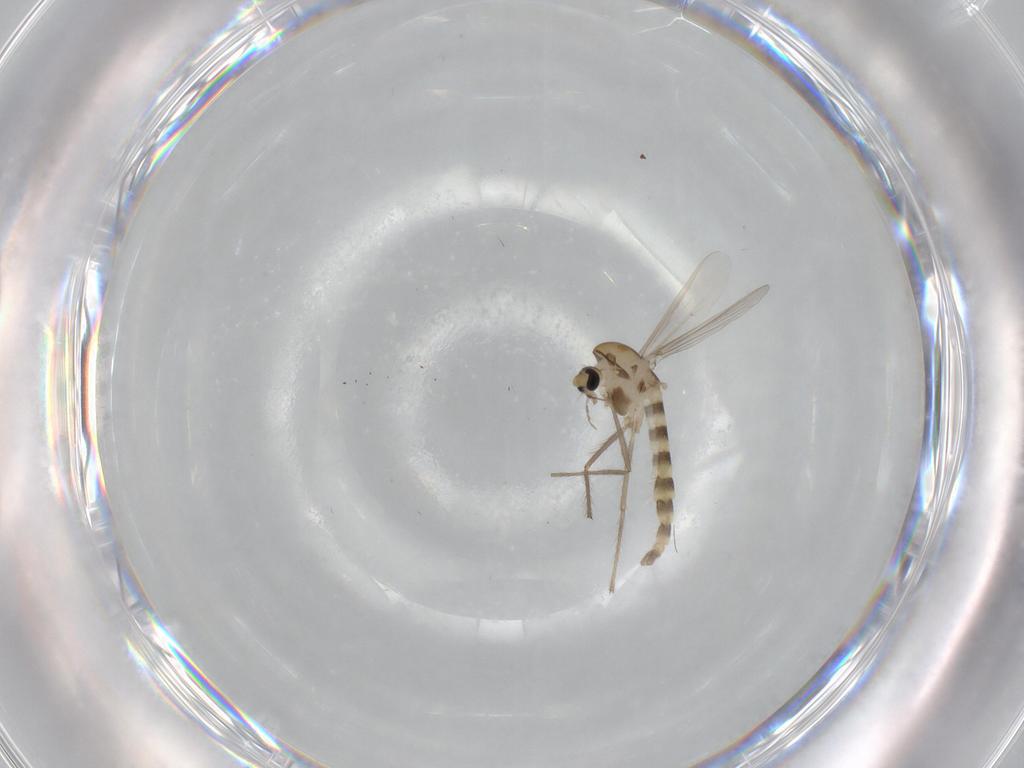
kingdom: Animalia
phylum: Arthropoda
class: Insecta
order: Diptera
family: Chironomidae
